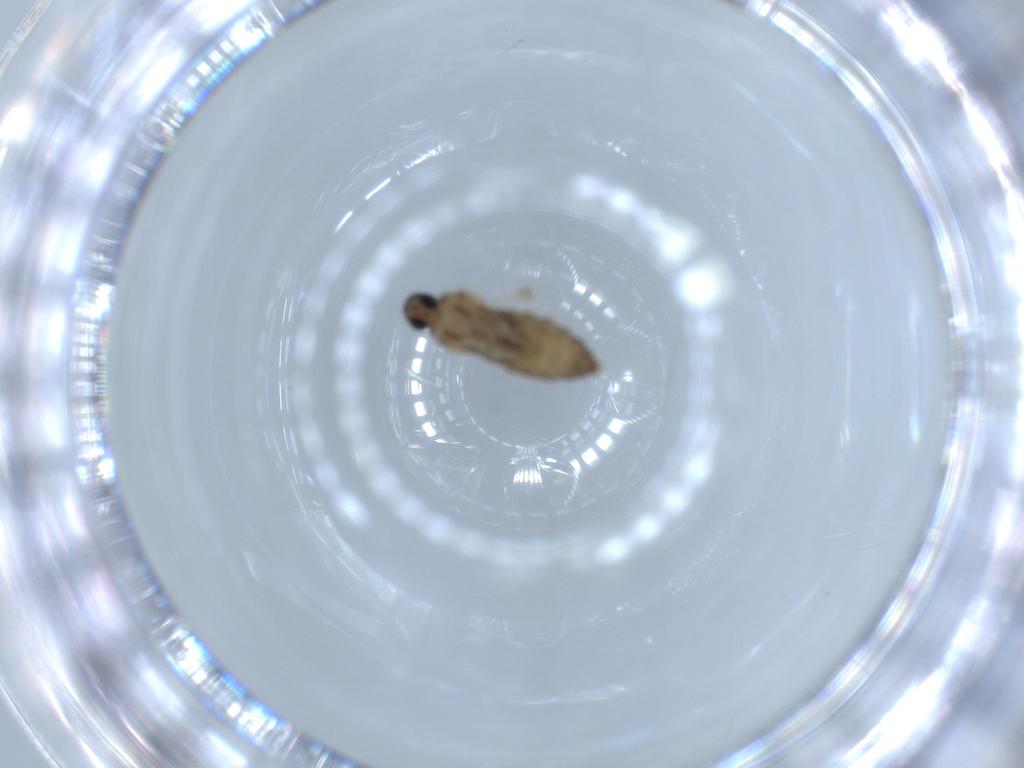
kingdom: Animalia
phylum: Arthropoda
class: Insecta
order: Diptera
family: Cecidomyiidae
